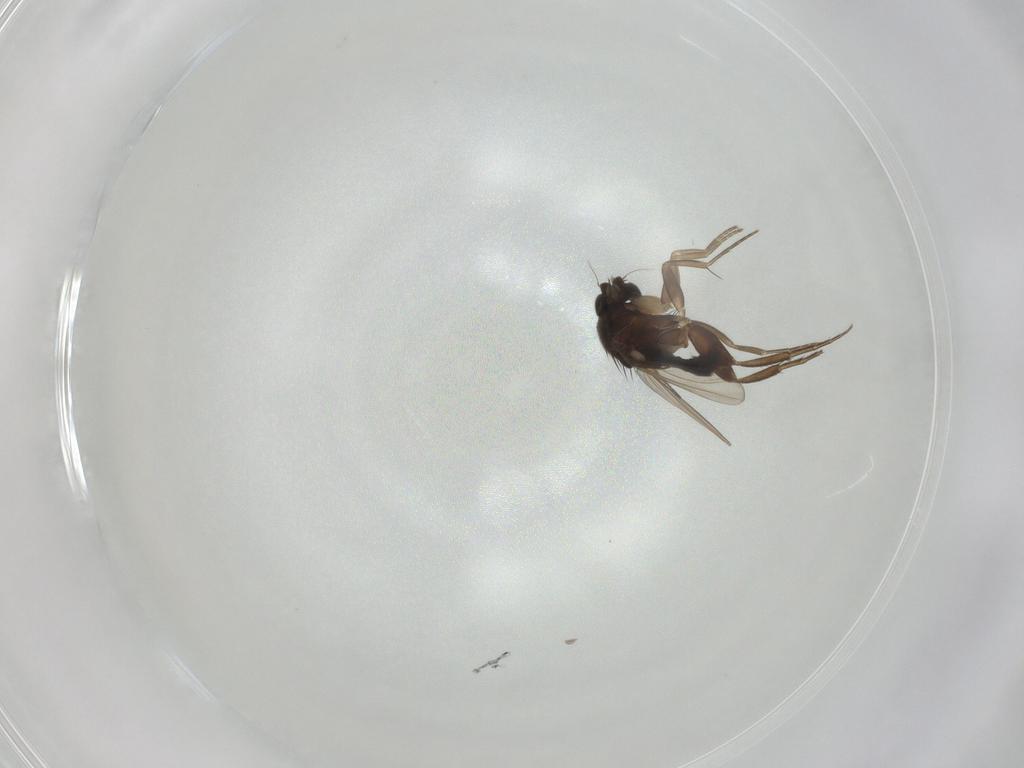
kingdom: Animalia
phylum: Arthropoda
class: Insecta
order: Diptera
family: Phoridae
